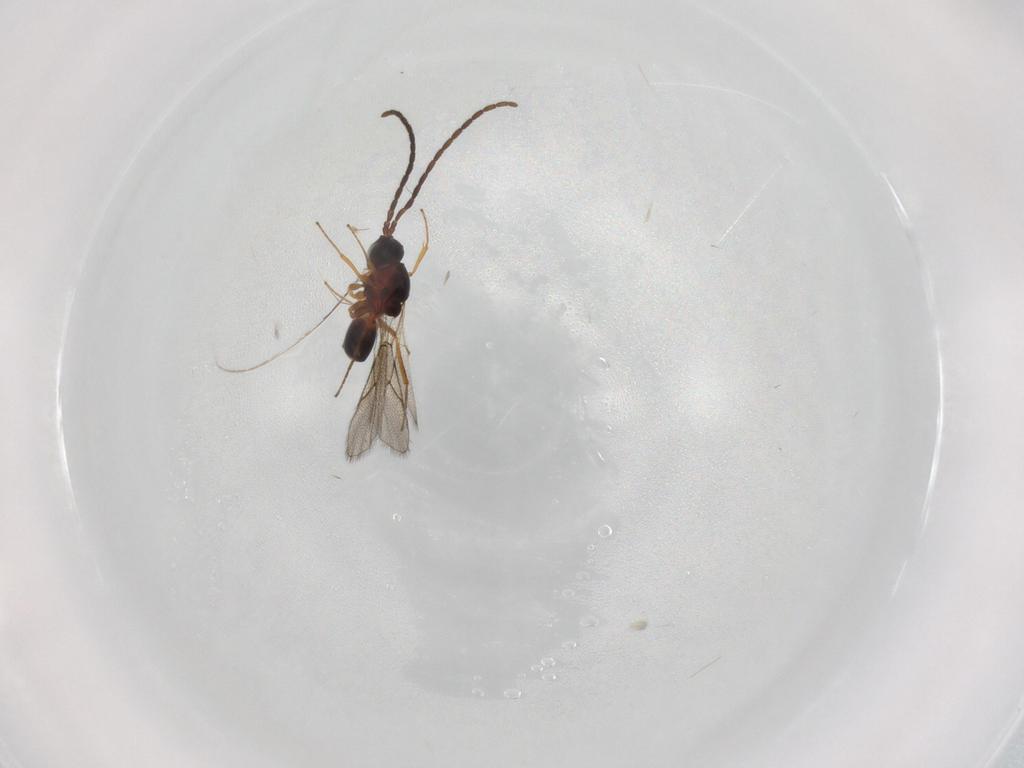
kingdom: Animalia
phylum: Arthropoda
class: Insecta
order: Hymenoptera
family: Figitidae
